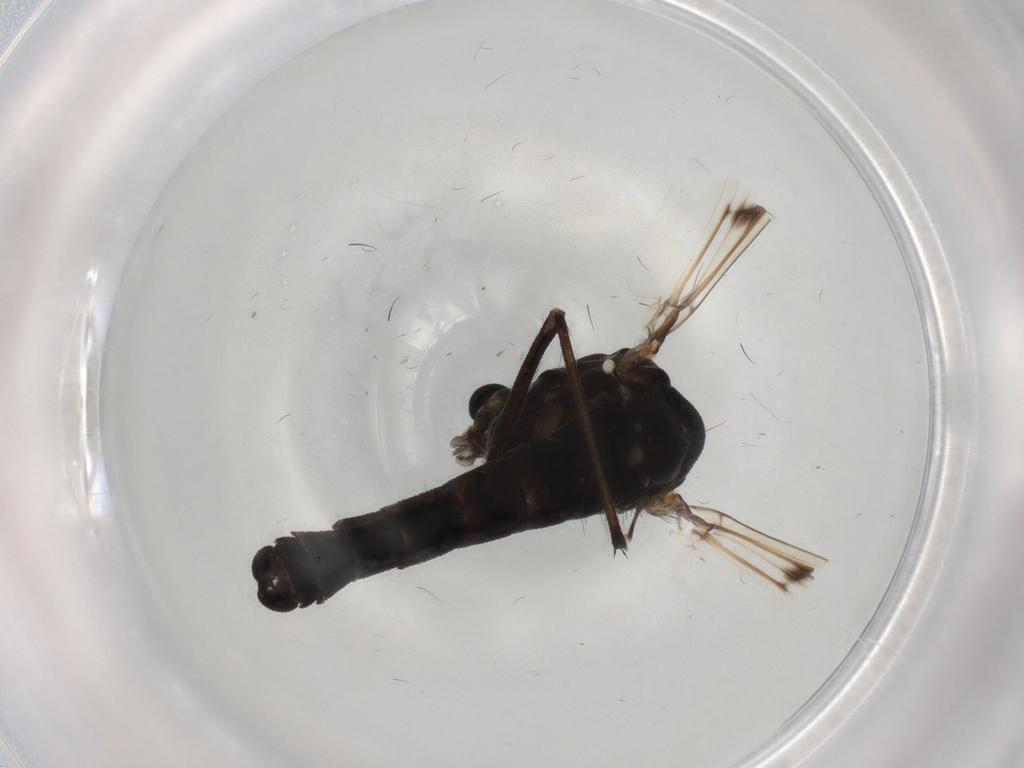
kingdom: Animalia
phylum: Arthropoda
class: Insecta
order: Diptera
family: Chironomidae
